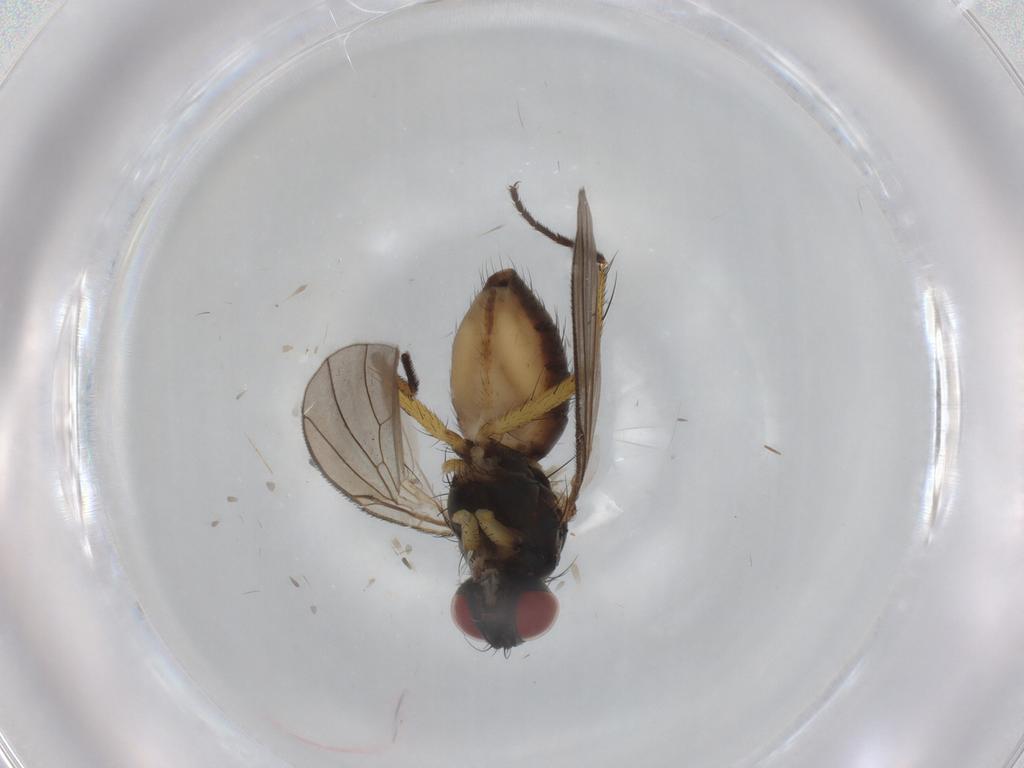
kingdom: Animalia
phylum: Arthropoda
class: Insecta
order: Diptera
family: Muscidae
